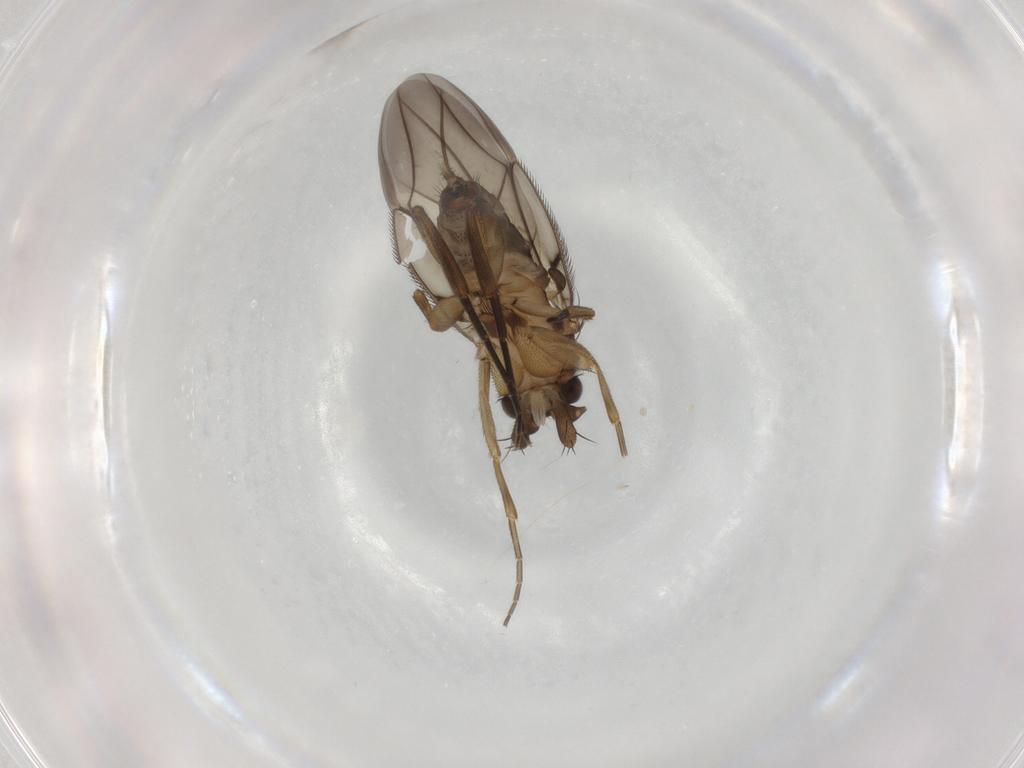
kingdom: Animalia
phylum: Arthropoda
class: Insecta
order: Diptera
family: Phoridae
